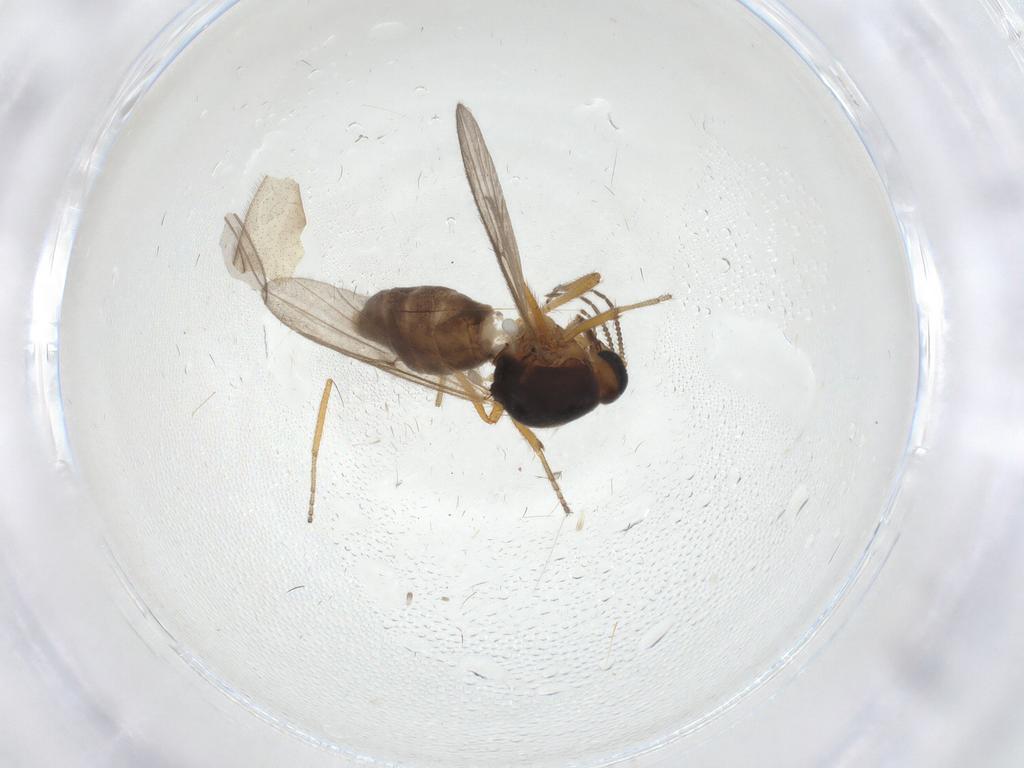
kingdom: Animalia
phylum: Arthropoda
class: Insecta
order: Diptera
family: Ceratopogonidae
